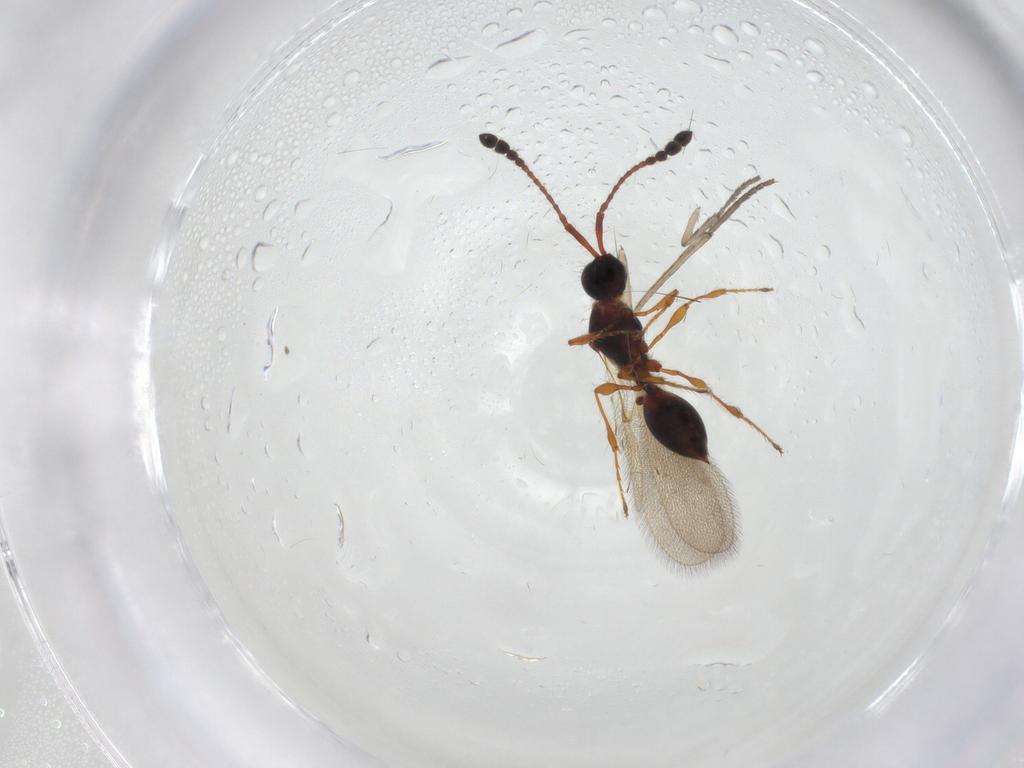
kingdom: Animalia
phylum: Arthropoda
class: Insecta
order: Hymenoptera
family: Diapriidae
